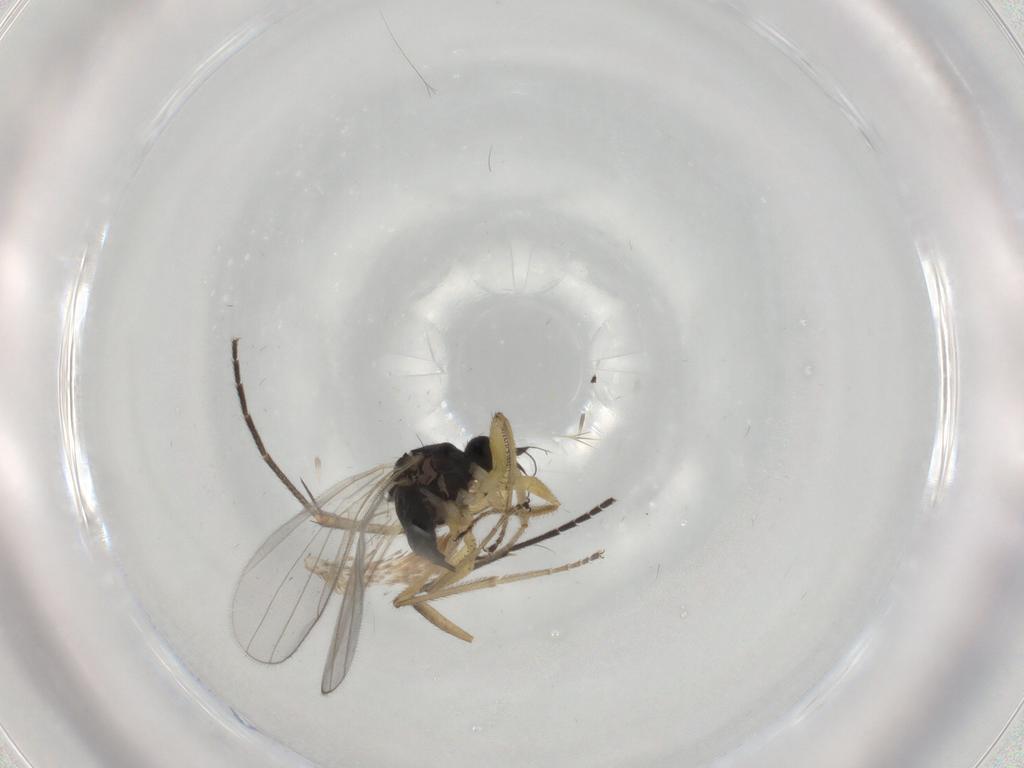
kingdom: Animalia
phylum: Arthropoda
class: Insecta
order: Diptera
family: Hybotidae
